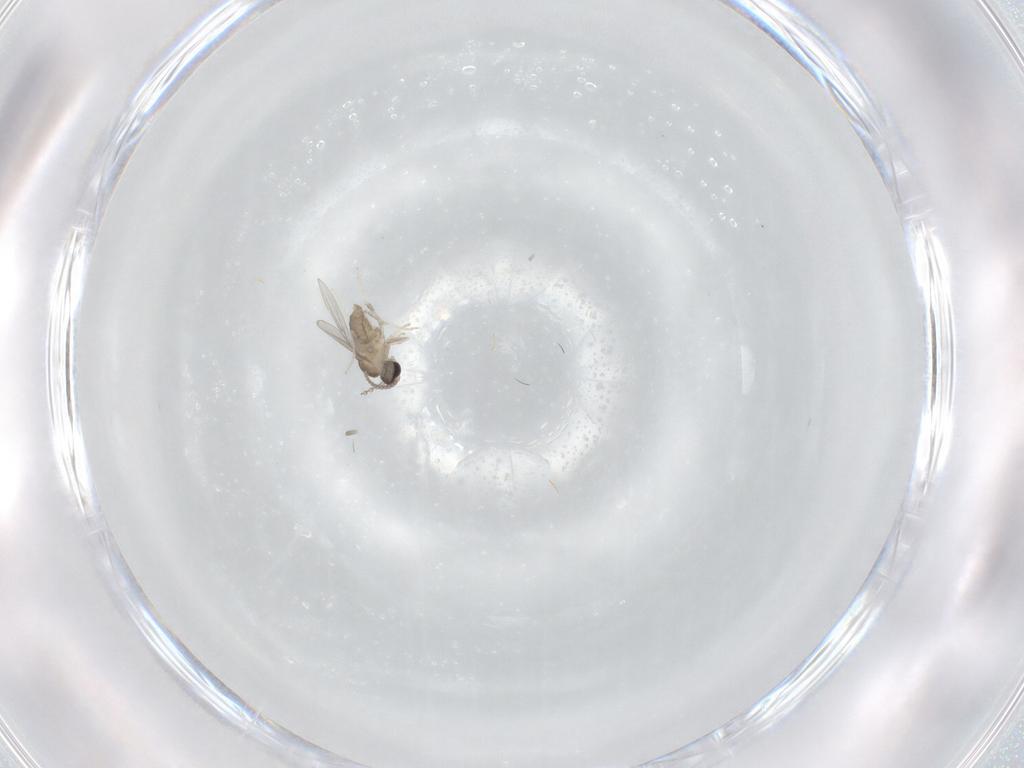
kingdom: Animalia
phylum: Arthropoda
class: Insecta
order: Diptera
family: Cecidomyiidae
